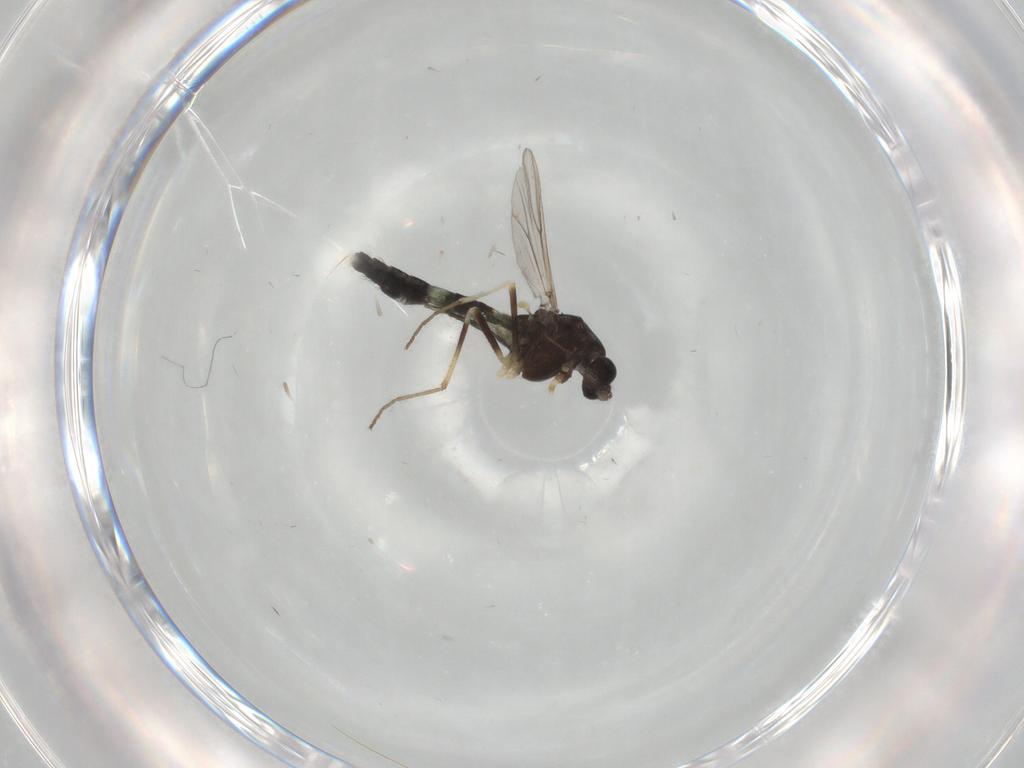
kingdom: Animalia
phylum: Arthropoda
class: Insecta
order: Diptera
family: Chironomidae
